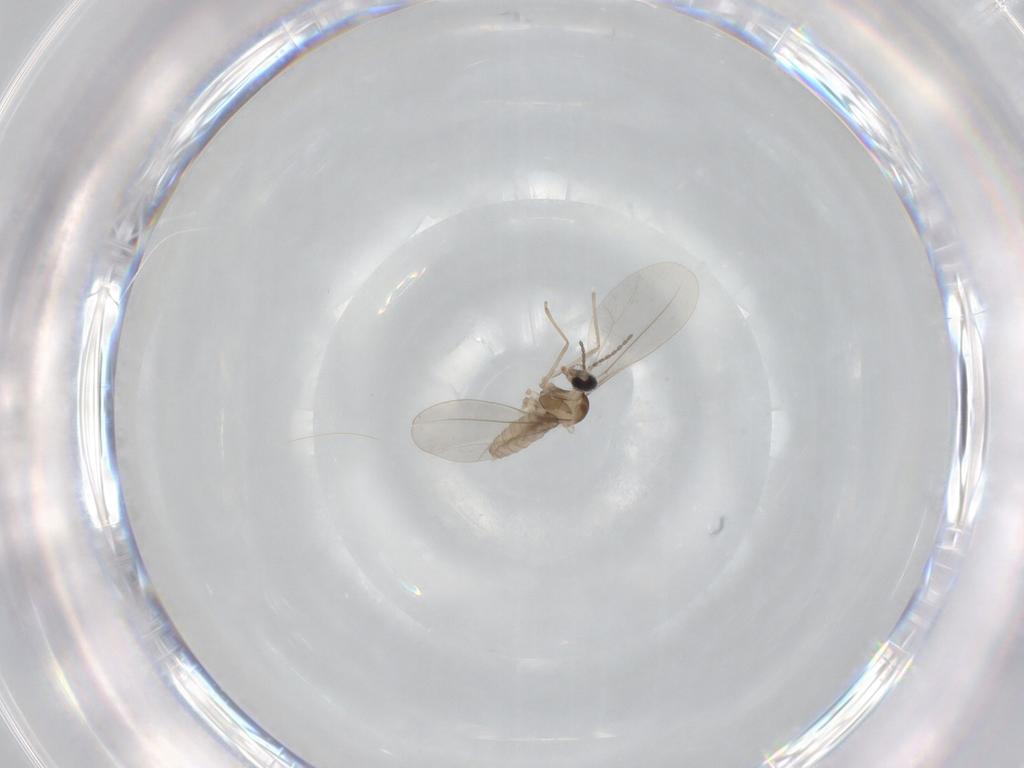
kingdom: Animalia
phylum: Arthropoda
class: Insecta
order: Diptera
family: Cecidomyiidae
